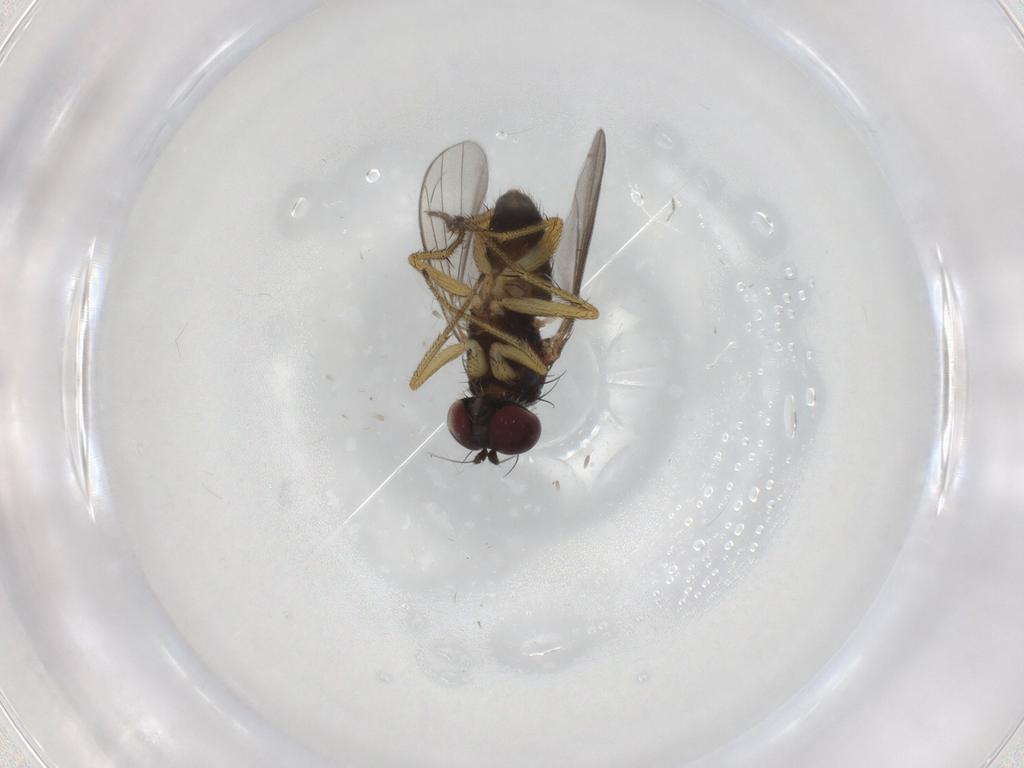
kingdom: Animalia
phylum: Arthropoda
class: Insecta
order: Diptera
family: Dolichopodidae
